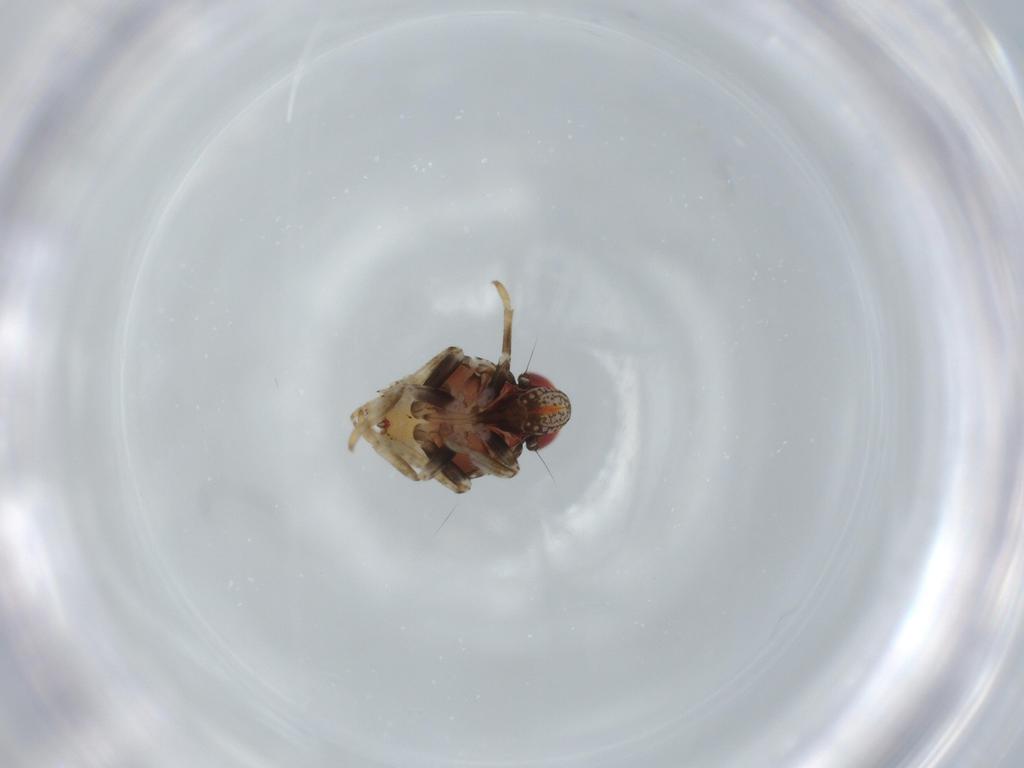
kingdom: Animalia
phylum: Arthropoda
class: Insecta
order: Hemiptera
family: Issidae
